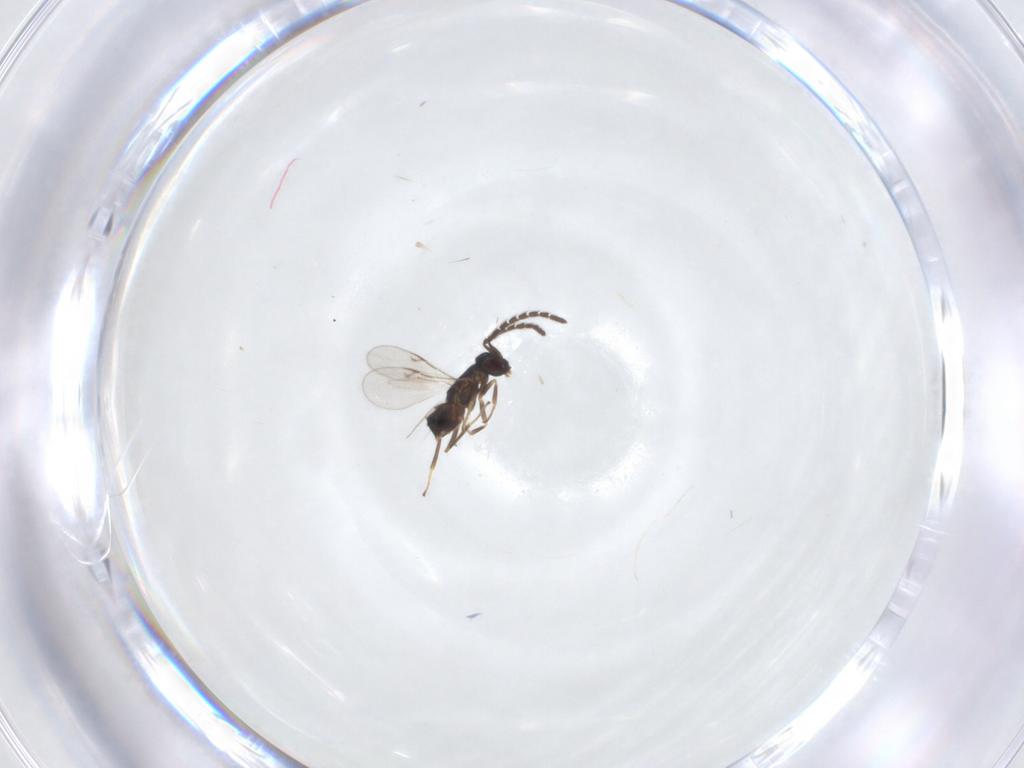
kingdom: Animalia
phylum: Arthropoda
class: Insecta
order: Hymenoptera
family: Encyrtidae
